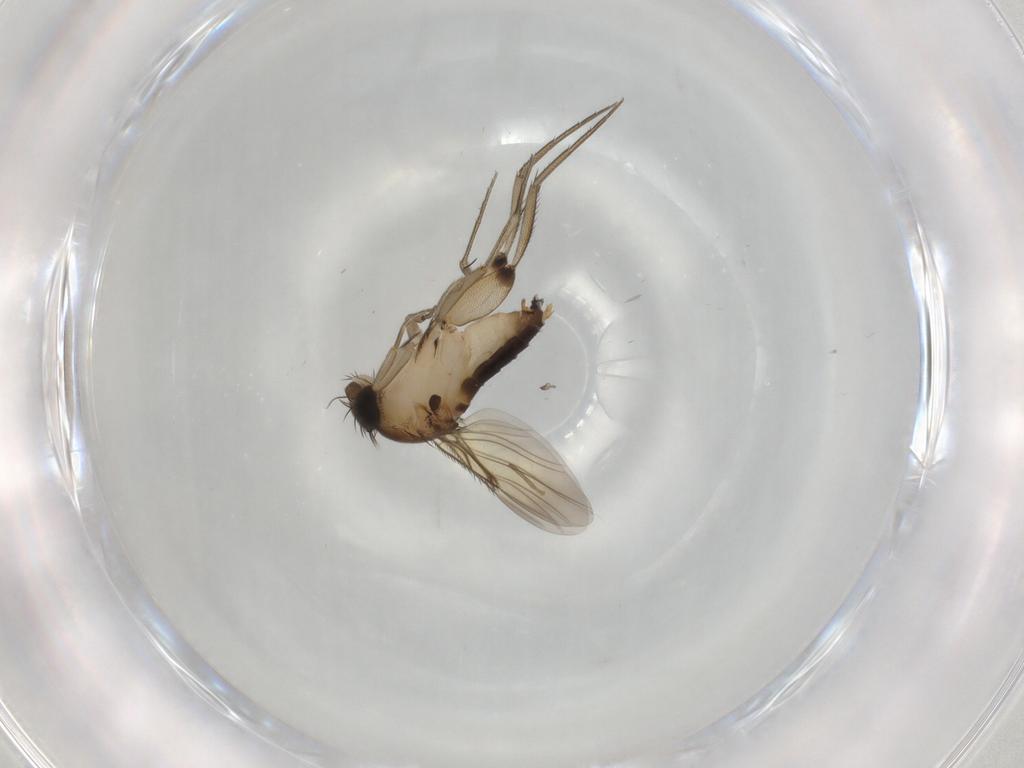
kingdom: Animalia
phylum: Arthropoda
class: Insecta
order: Diptera
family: Phoridae
